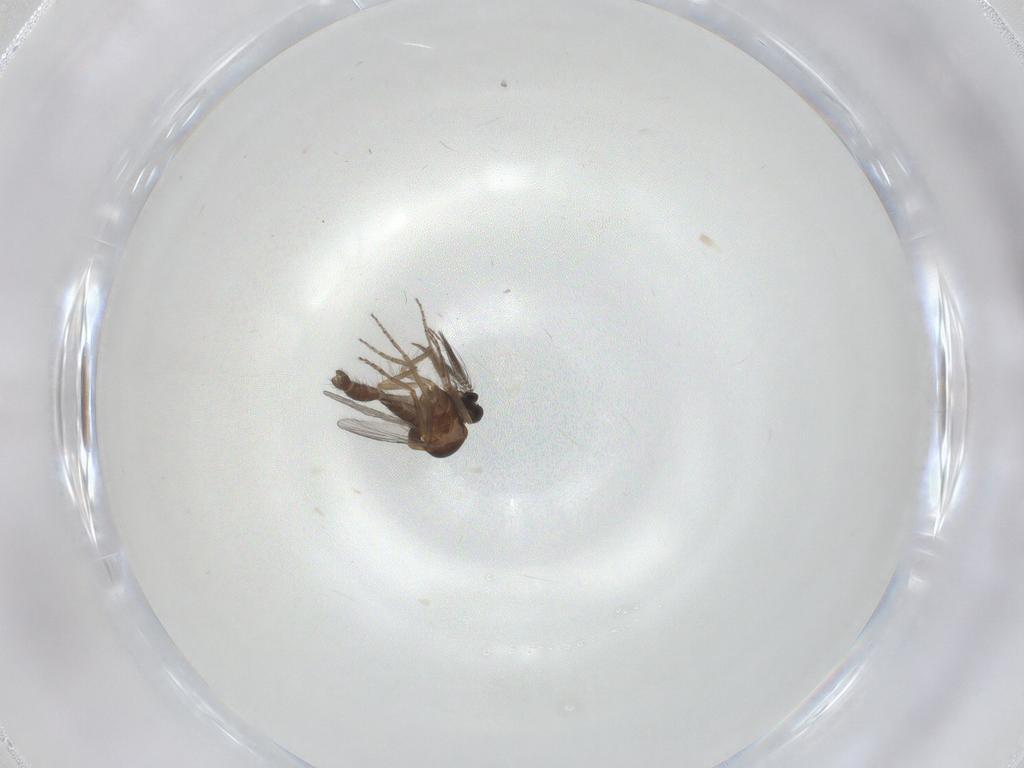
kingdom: Animalia
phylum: Arthropoda
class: Insecta
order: Diptera
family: Ceratopogonidae
